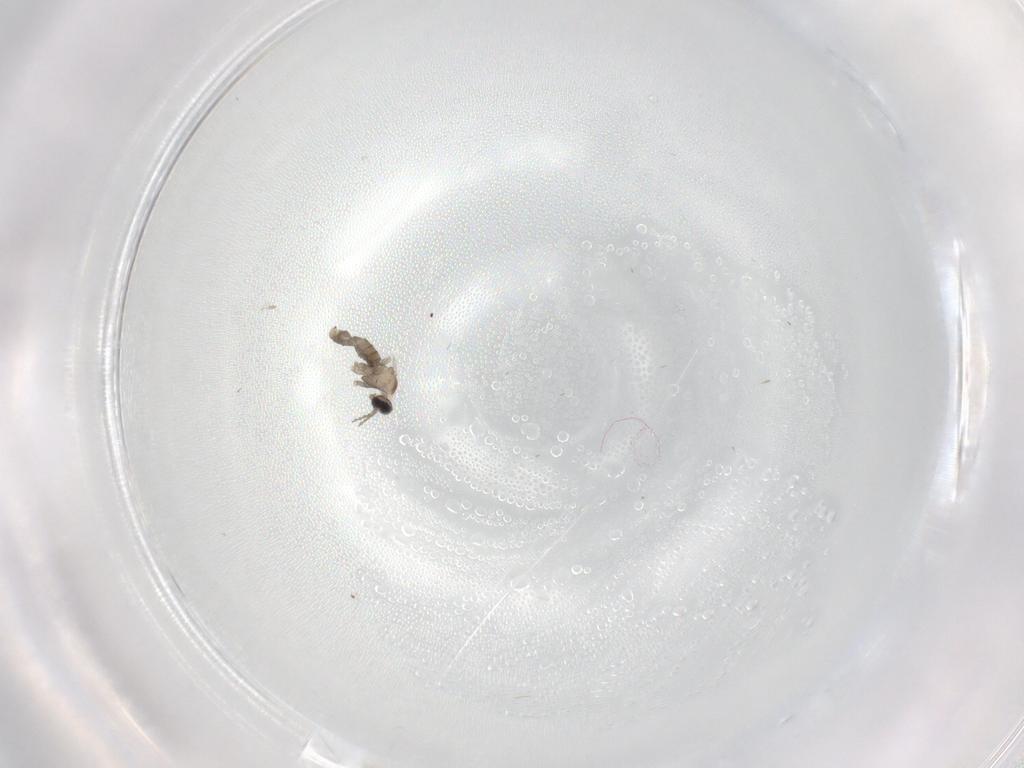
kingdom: Animalia
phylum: Arthropoda
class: Insecta
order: Diptera
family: Cecidomyiidae
